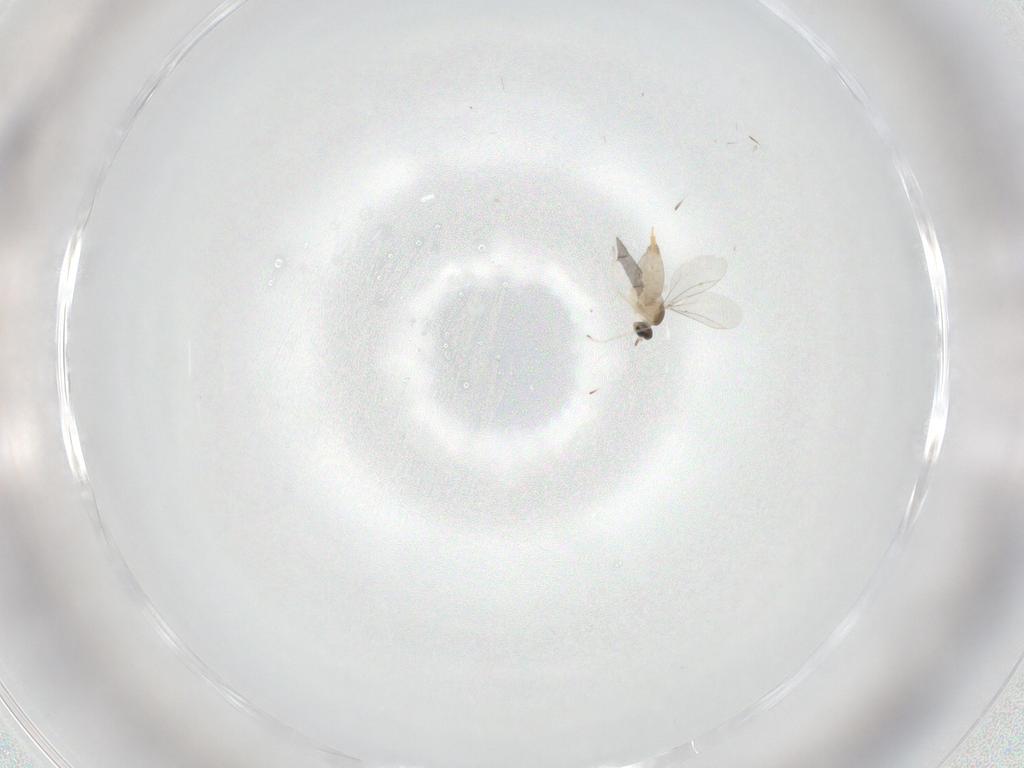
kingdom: Animalia
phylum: Arthropoda
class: Insecta
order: Diptera
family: Cecidomyiidae
